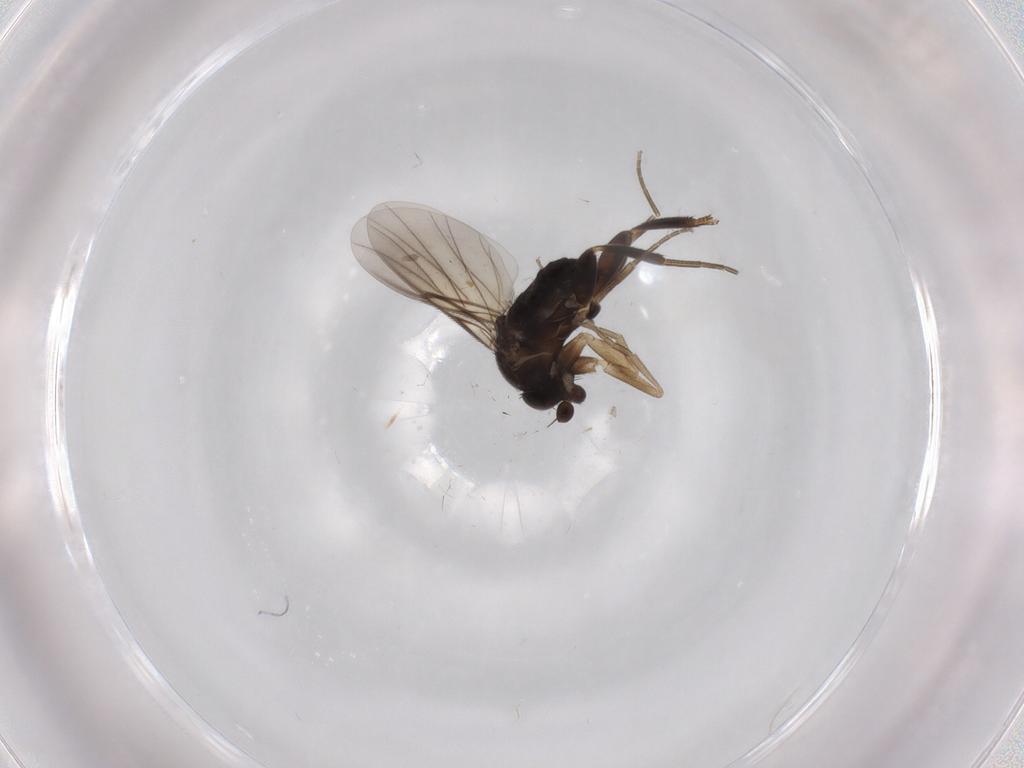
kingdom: Animalia
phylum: Arthropoda
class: Insecta
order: Diptera
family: Phoridae
